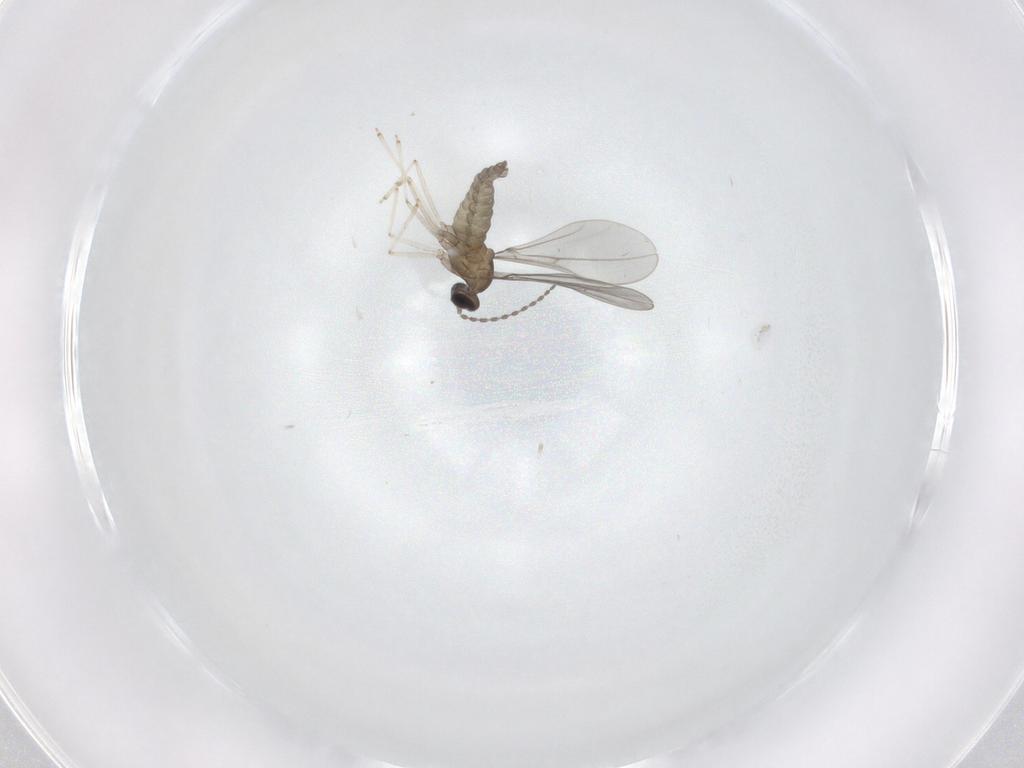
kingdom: Animalia
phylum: Arthropoda
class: Insecta
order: Diptera
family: Cecidomyiidae
